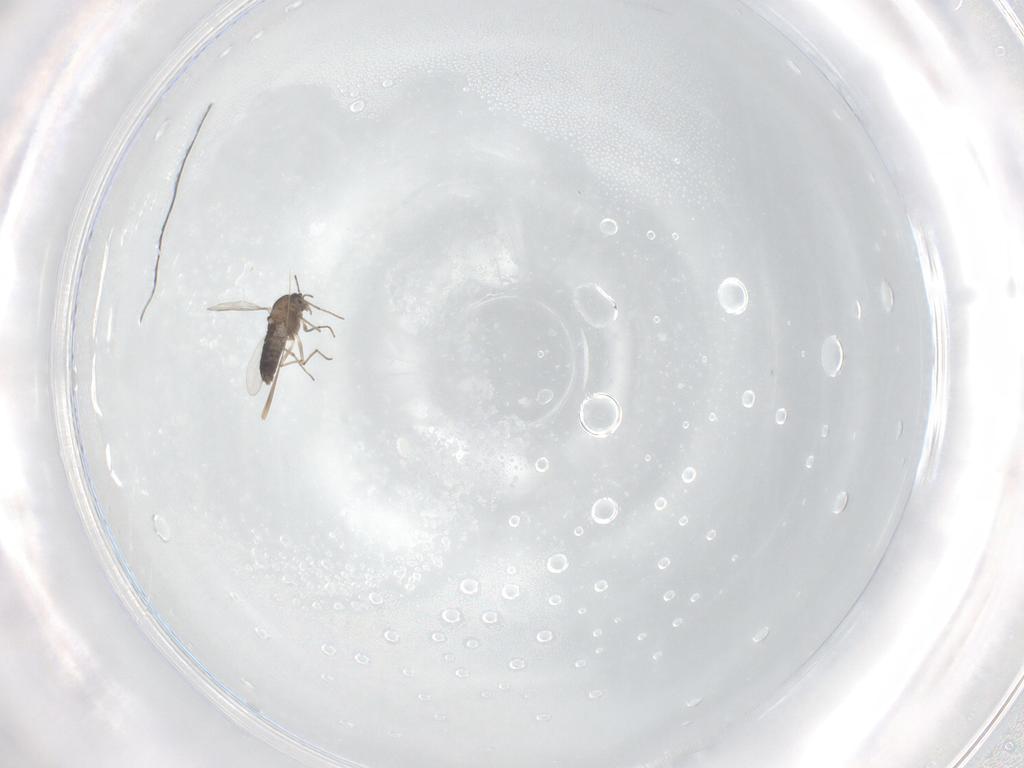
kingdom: Animalia
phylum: Arthropoda
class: Insecta
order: Diptera
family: Chironomidae
